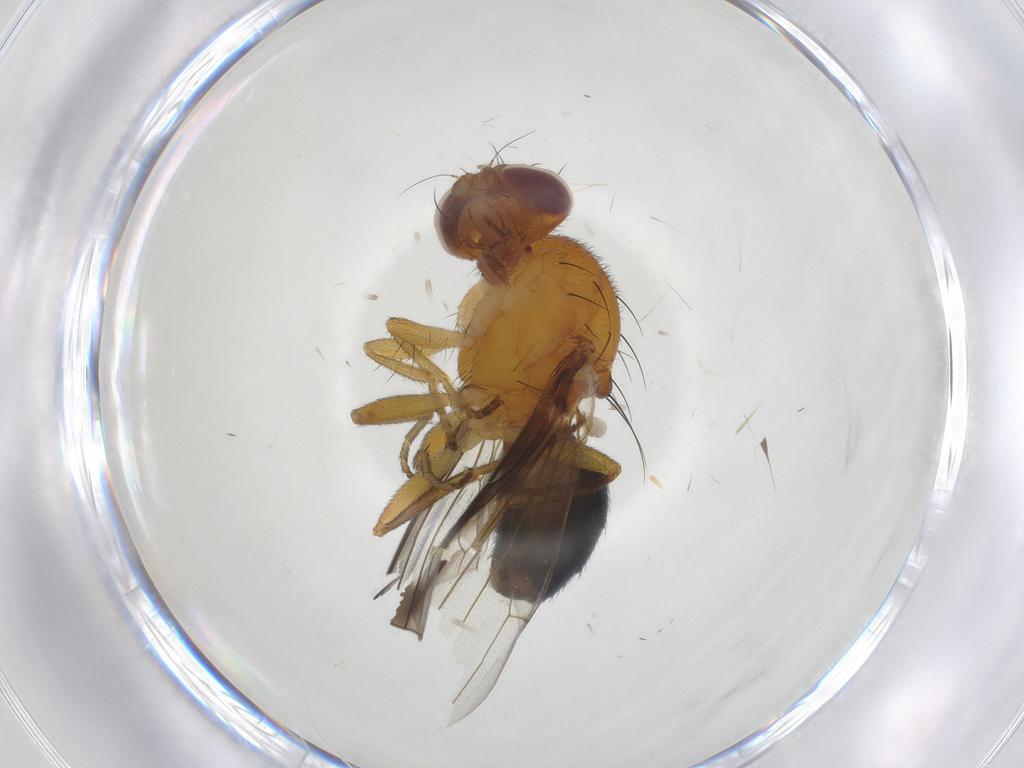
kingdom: Animalia
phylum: Arthropoda
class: Insecta
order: Diptera
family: Piophilidae
